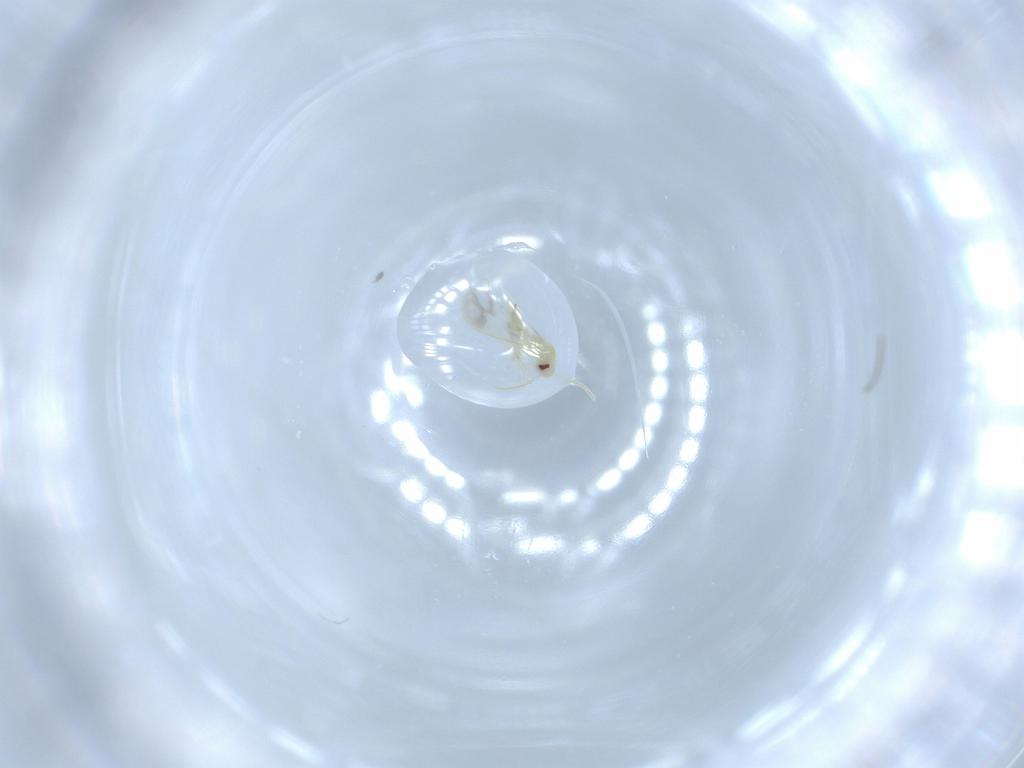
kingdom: Animalia
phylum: Arthropoda
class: Insecta
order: Hemiptera
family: Aleyrodidae
